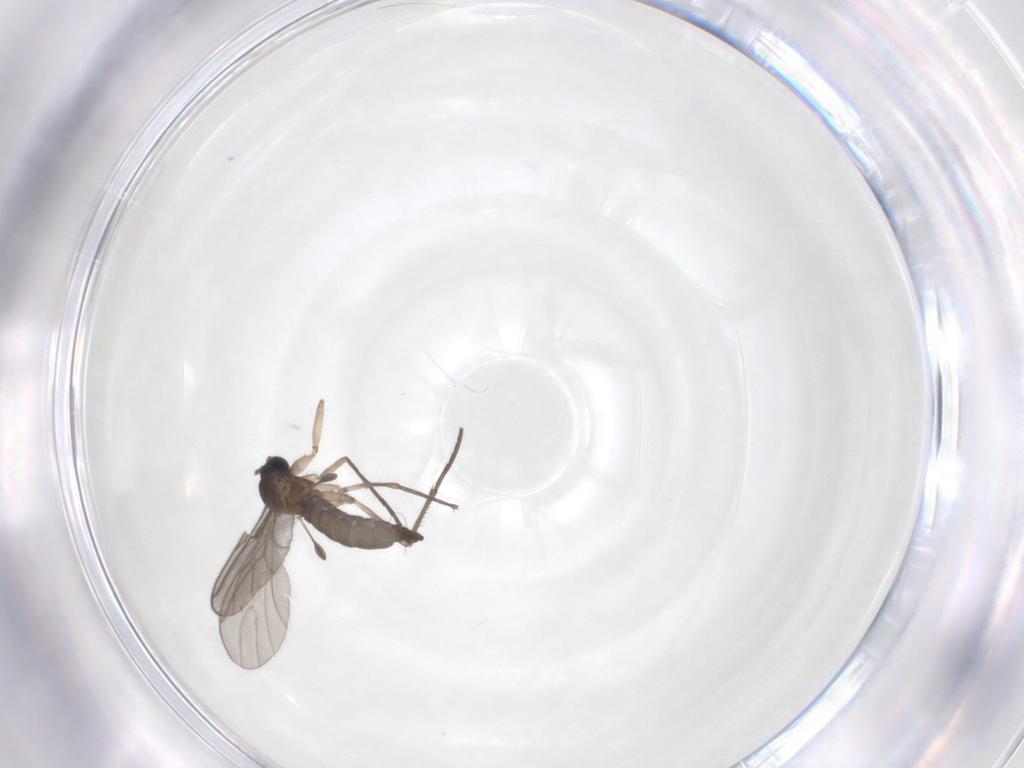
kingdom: Animalia
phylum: Arthropoda
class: Insecta
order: Diptera
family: Sciaridae
